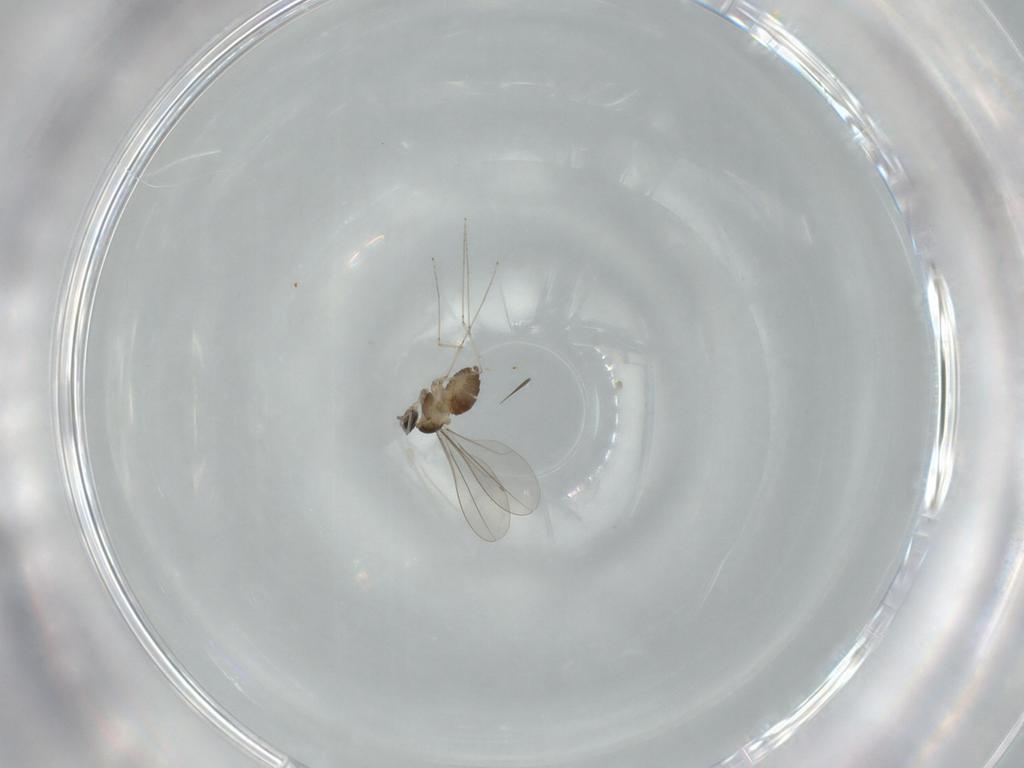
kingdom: Animalia
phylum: Arthropoda
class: Insecta
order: Diptera
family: Cecidomyiidae
